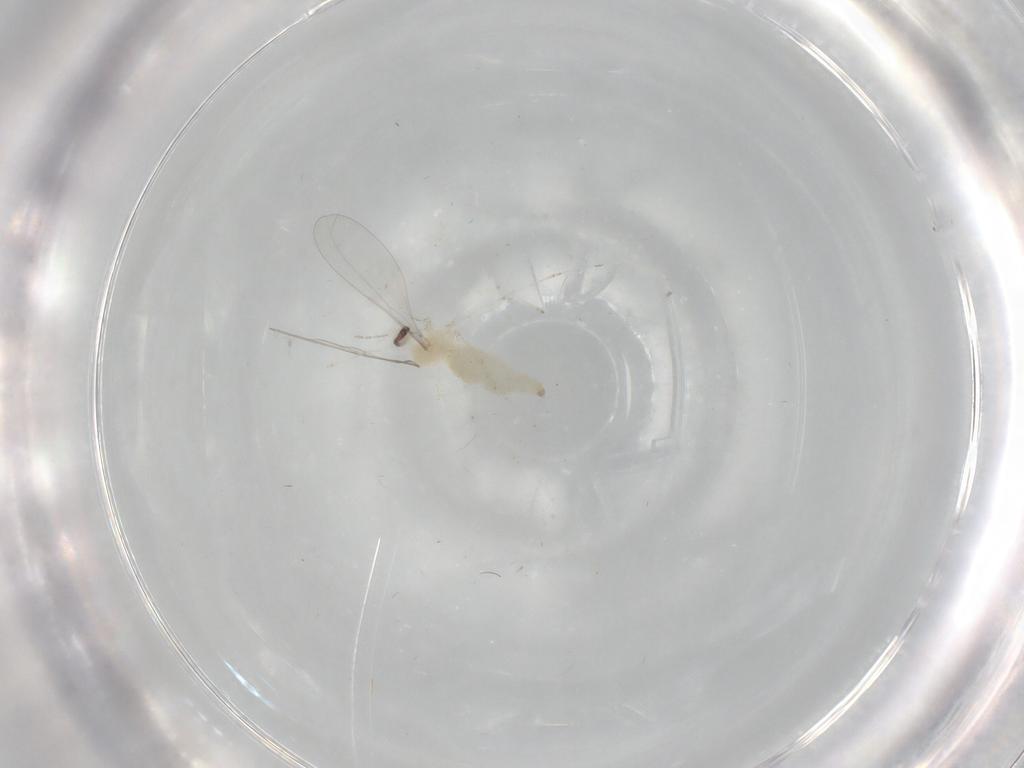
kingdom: Animalia
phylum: Arthropoda
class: Insecta
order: Diptera
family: Cecidomyiidae
